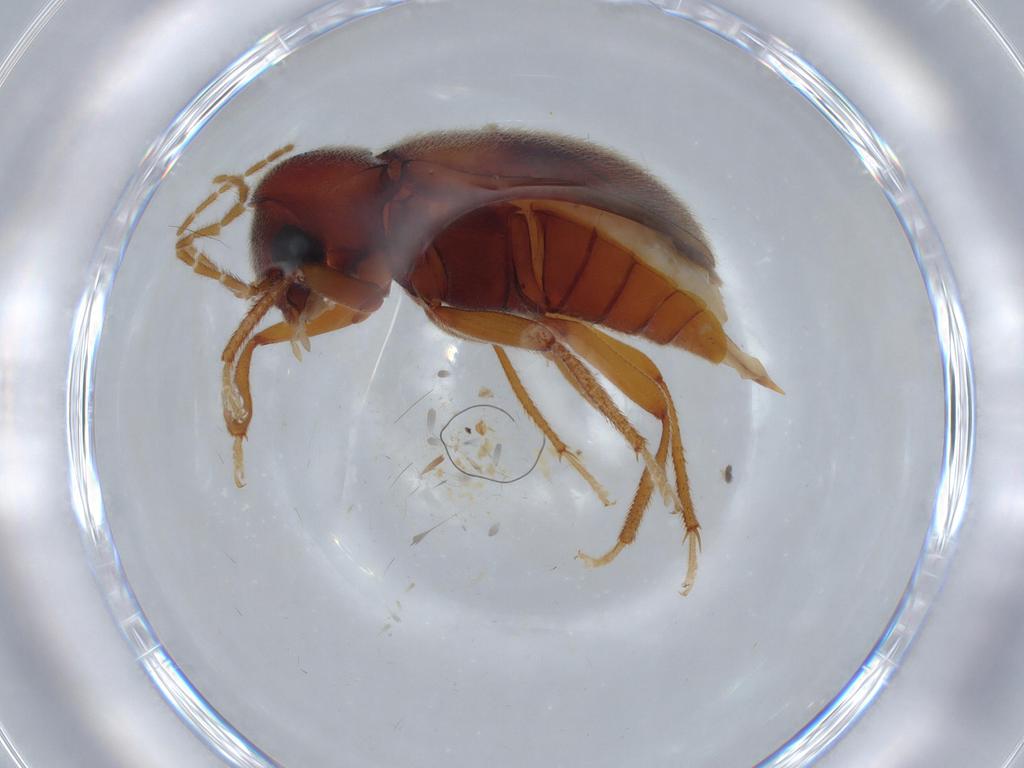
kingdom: Animalia
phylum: Arthropoda
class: Insecta
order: Coleoptera
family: Ptilodactylidae
